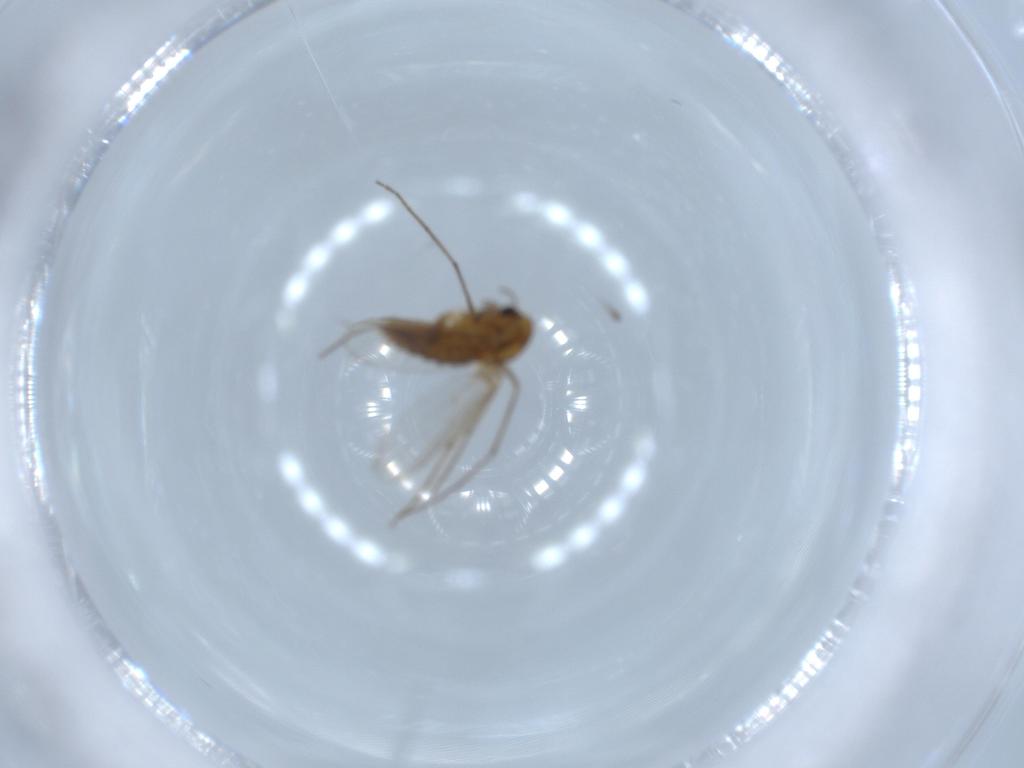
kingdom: Animalia
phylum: Arthropoda
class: Insecta
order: Diptera
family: Chironomidae
